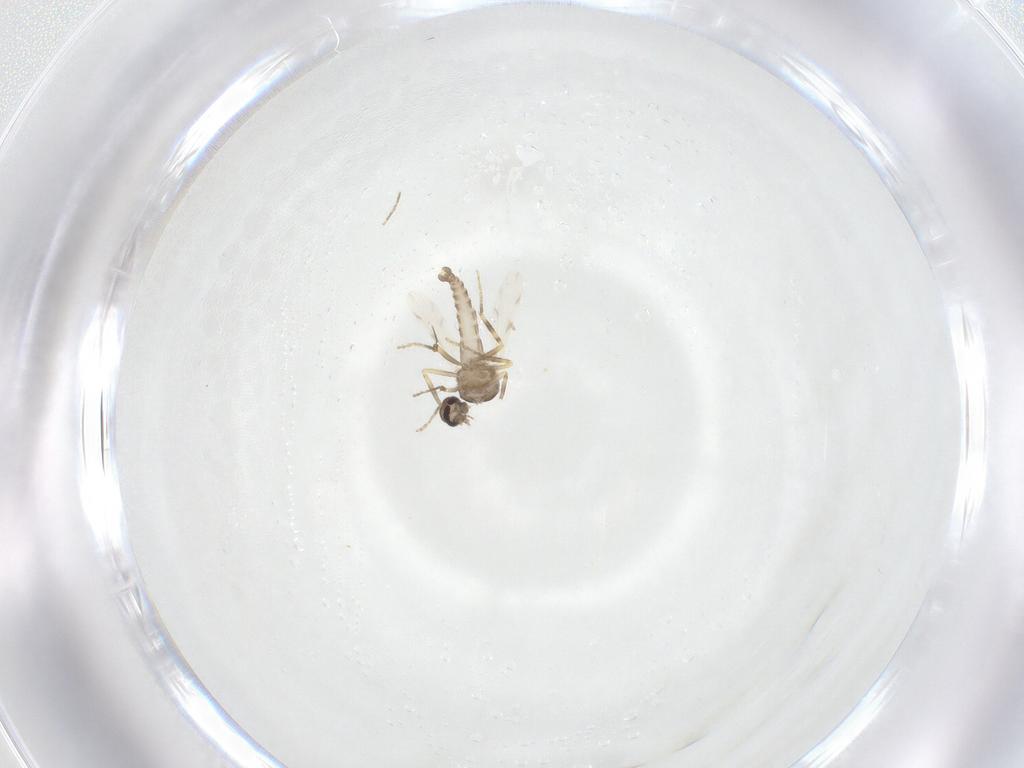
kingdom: Animalia
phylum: Arthropoda
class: Insecta
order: Diptera
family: Ceratopogonidae
